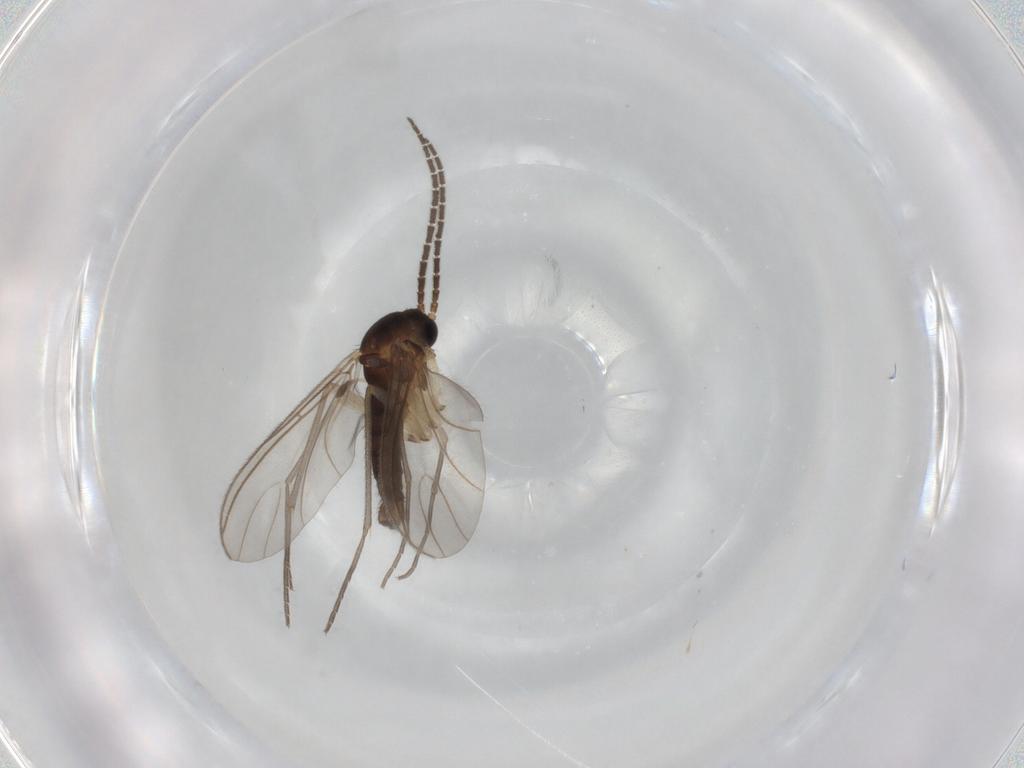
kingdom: Animalia
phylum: Arthropoda
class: Insecta
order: Diptera
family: Sciaridae
